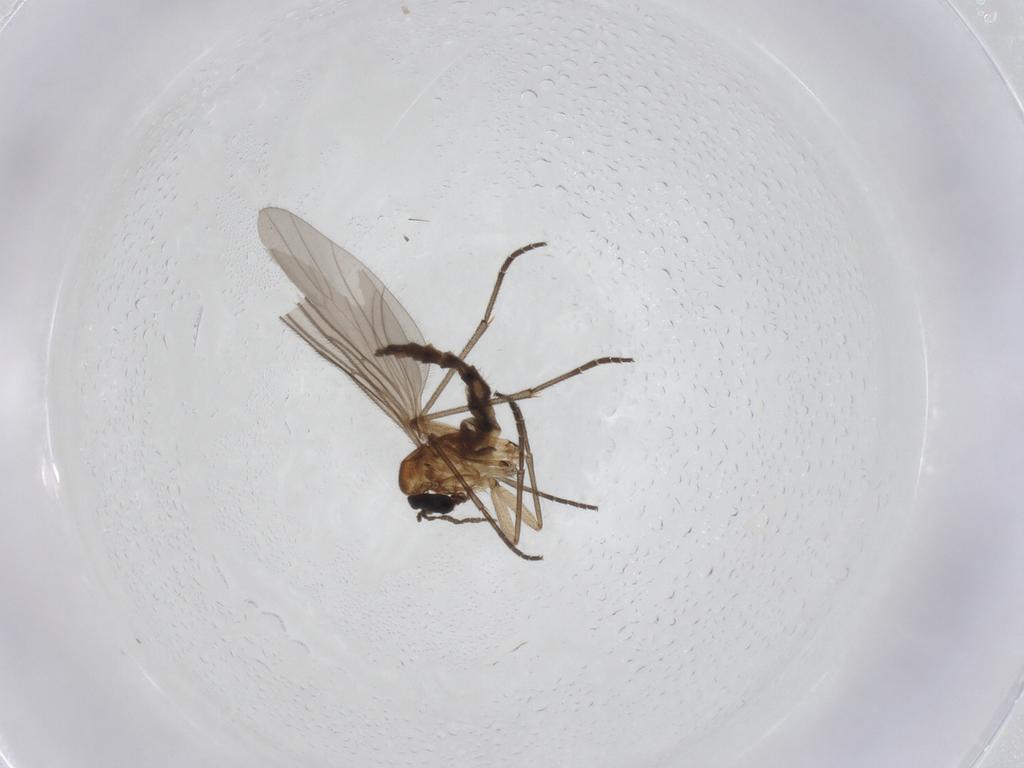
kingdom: Animalia
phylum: Arthropoda
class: Insecta
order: Diptera
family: Sciaridae
